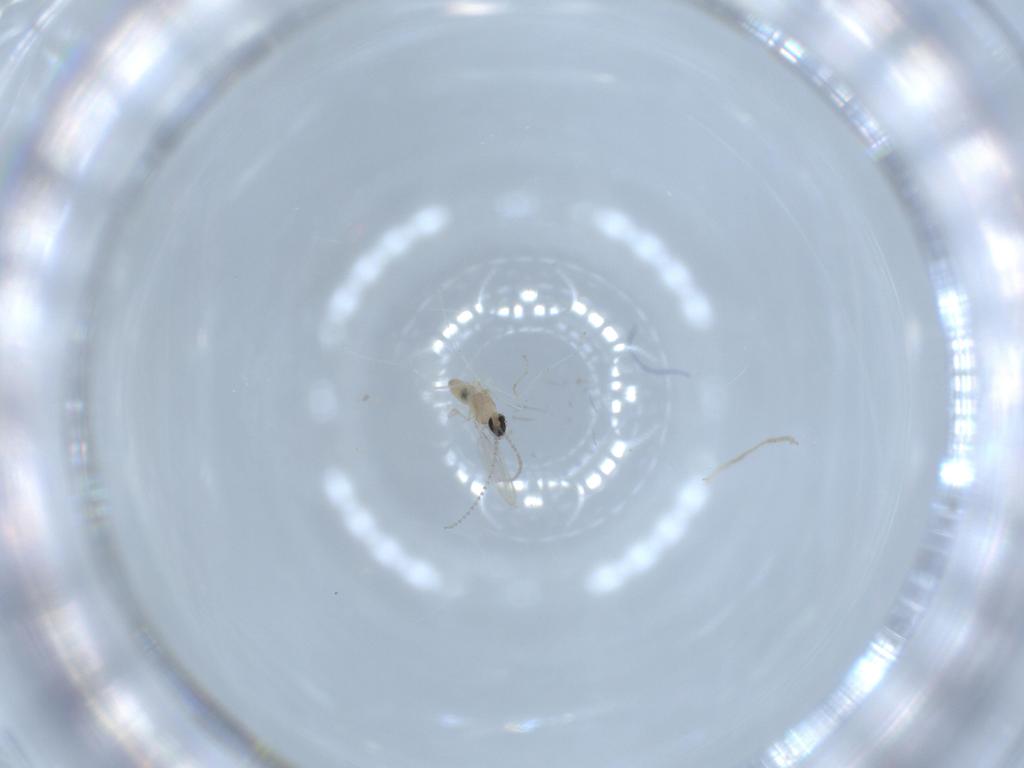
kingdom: Animalia
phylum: Arthropoda
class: Insecta
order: Diptera
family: Cecidomyiidae
